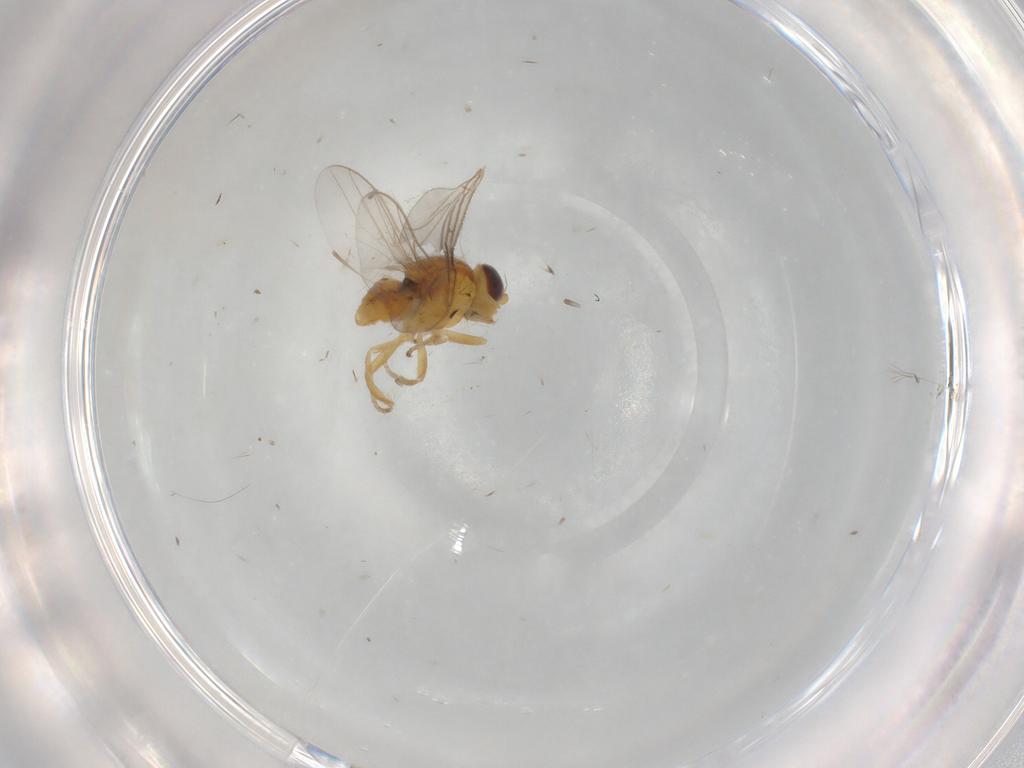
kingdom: Animalia
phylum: Arthropoda
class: Insecta
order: Diptera
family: Chloropidae
